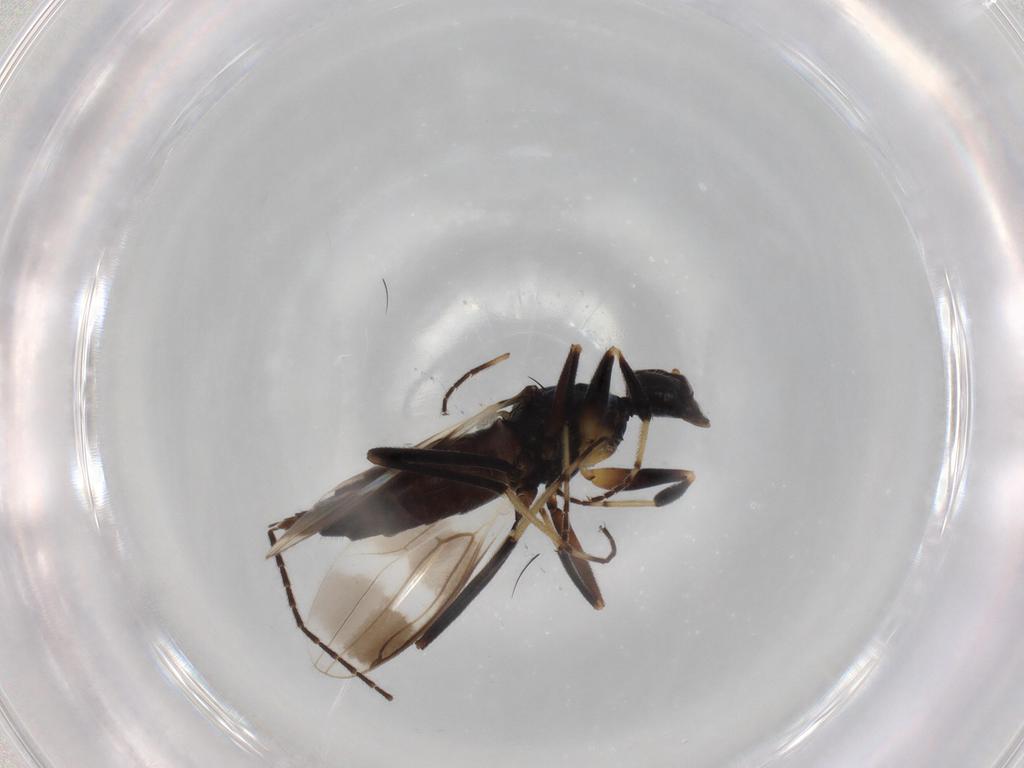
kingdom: Animalia
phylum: Arthropoda
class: Insecta
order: Diptera
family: Hybotidae
